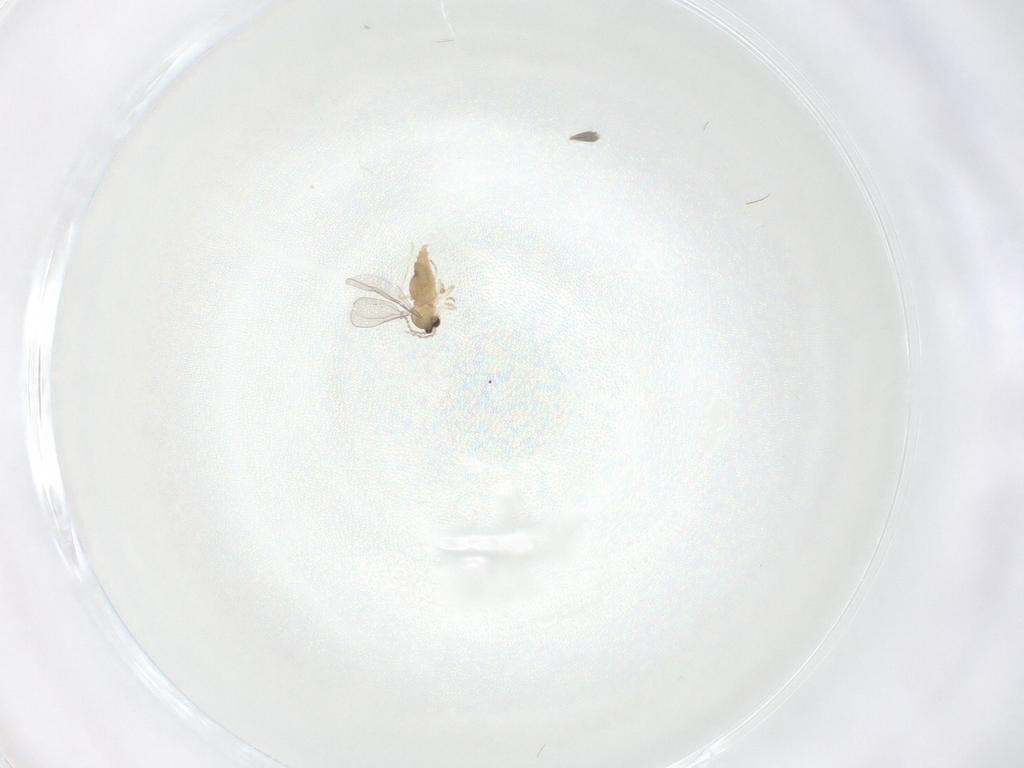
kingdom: Animalia
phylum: Arthropoda
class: Insecta
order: Diptera
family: Cecidomyiidae
